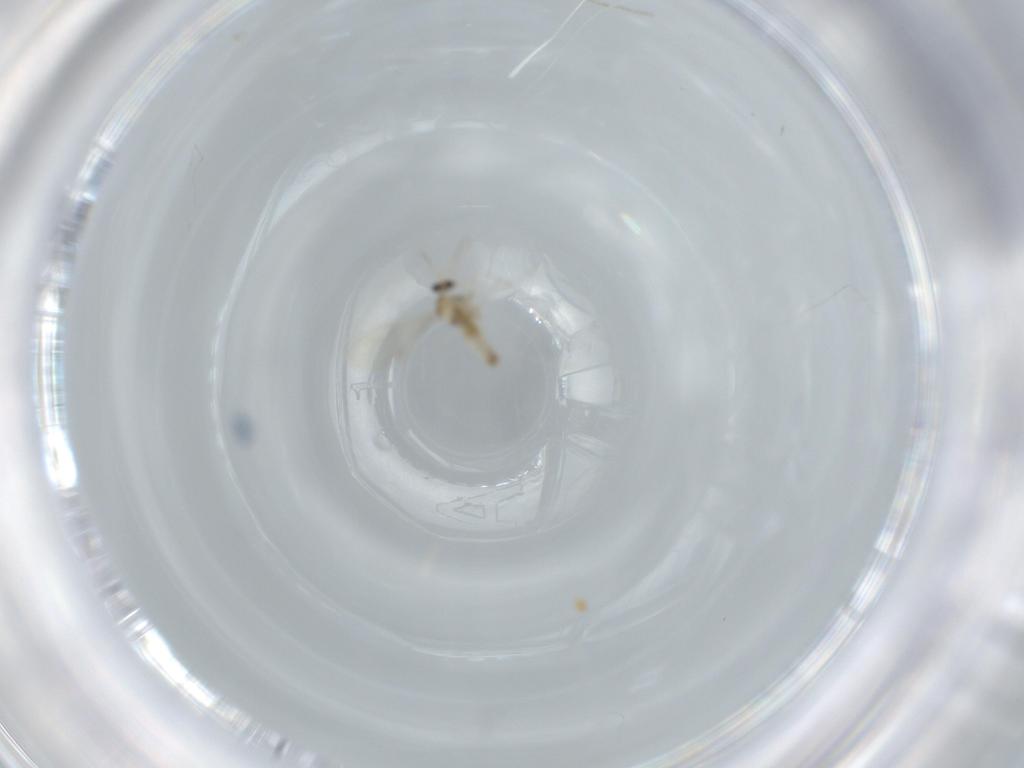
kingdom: Animalia
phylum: Arthropoda
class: Insecta
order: Diptera
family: Cecidomyiidae
